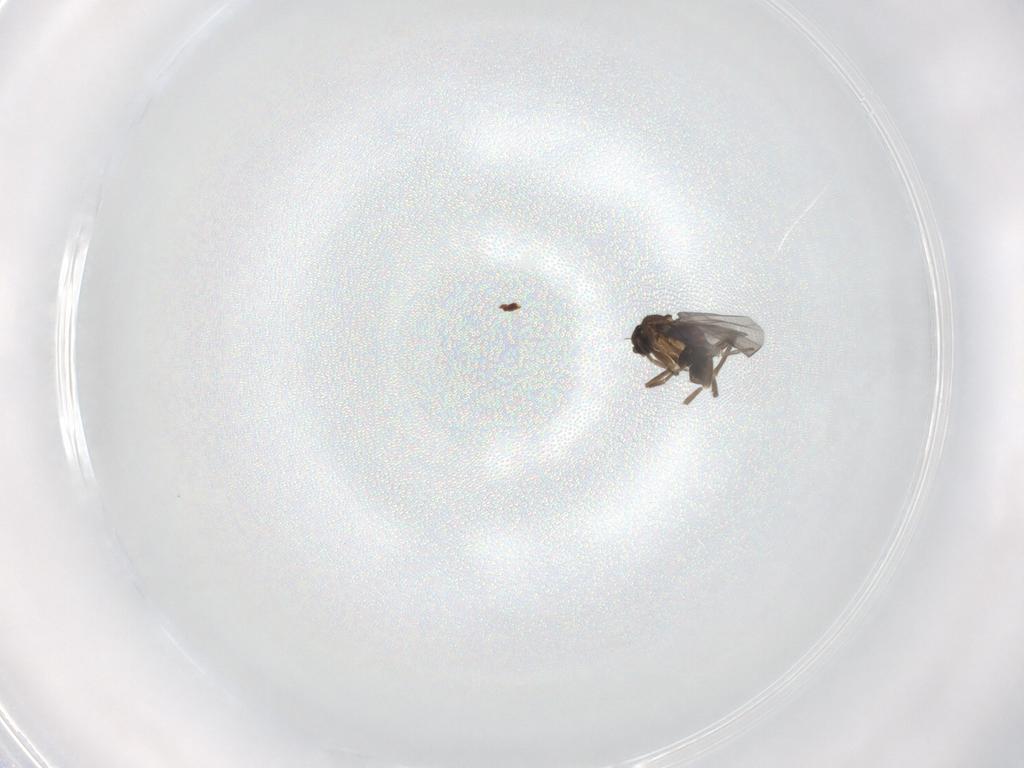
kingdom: Animalia
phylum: Arthropoda
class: Insecta
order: Diptera
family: Phoridae
